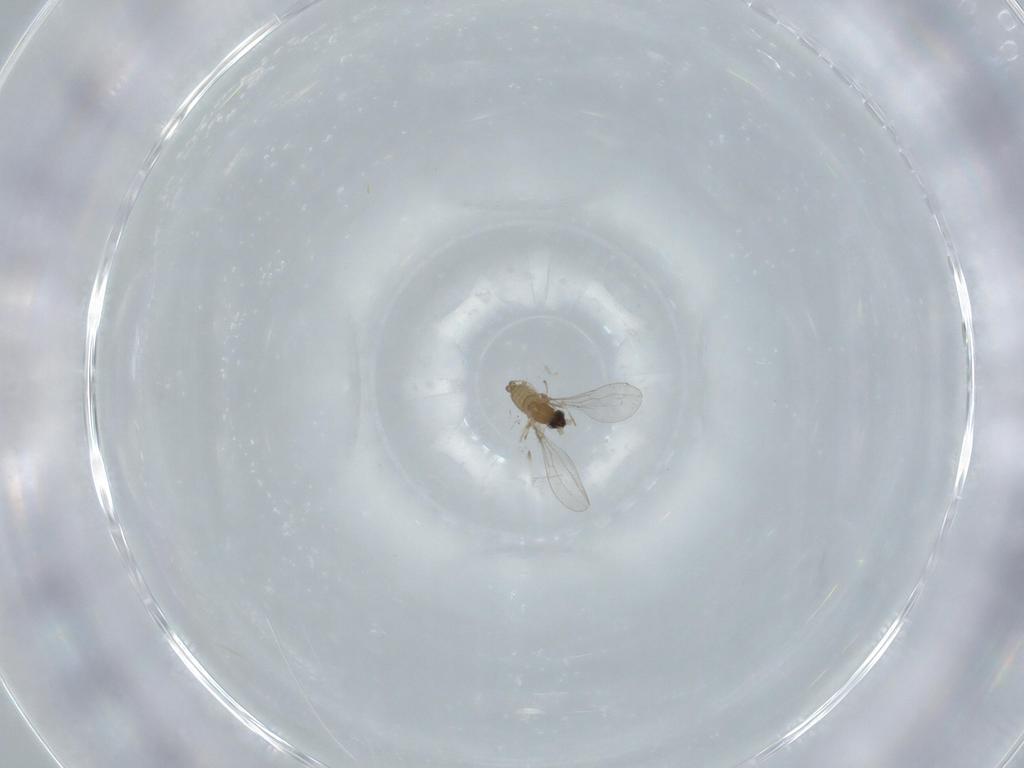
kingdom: Animalia
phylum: Arthropoda
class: Insecta
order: Diptera
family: Cecidomyiidae
